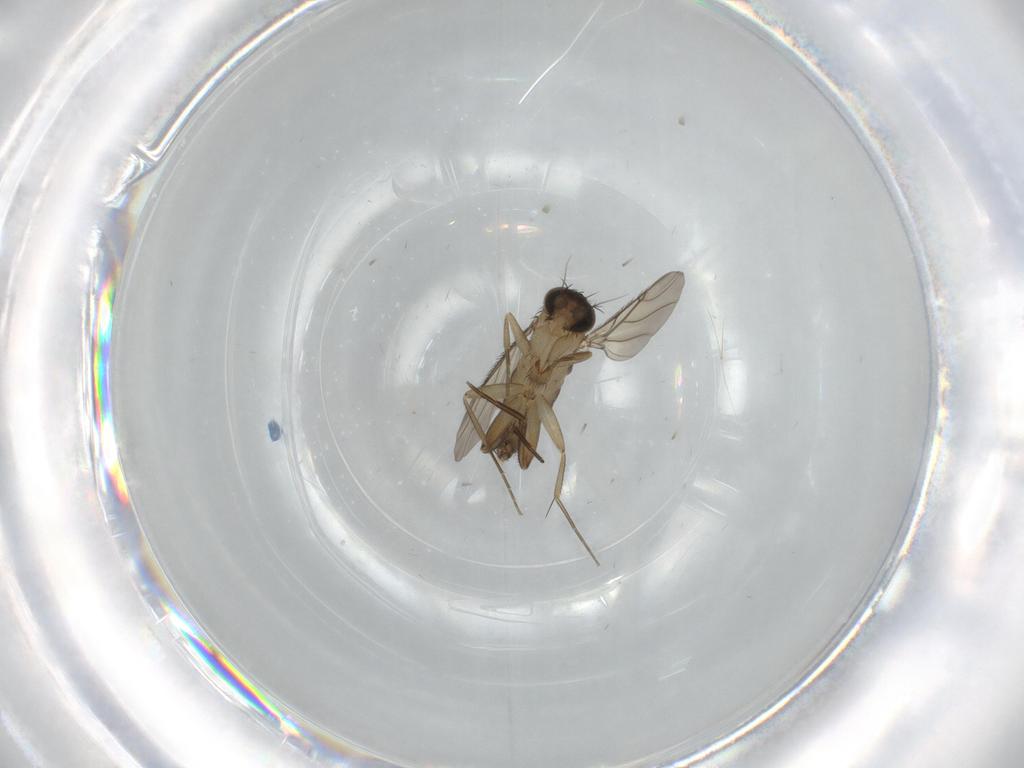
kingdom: Animalia
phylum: Arthropoda
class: Insecta
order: Diptera
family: Phoridae
